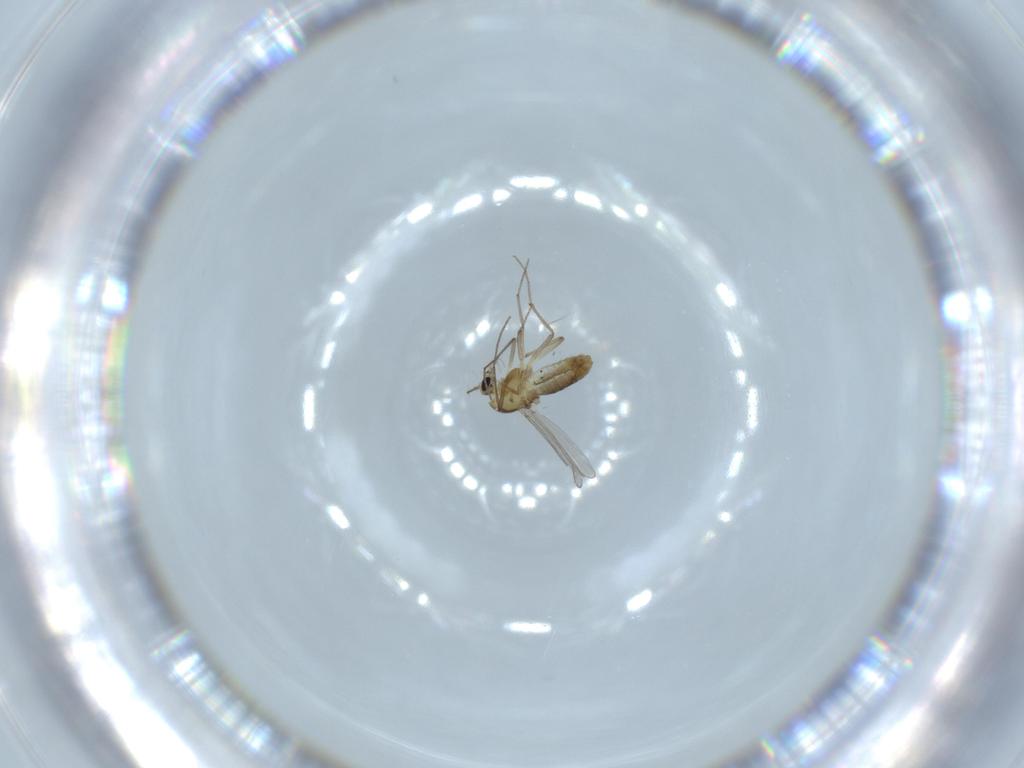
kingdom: Animalia
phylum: Arthropoda
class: Insecta
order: Diptera
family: Chironomidae
